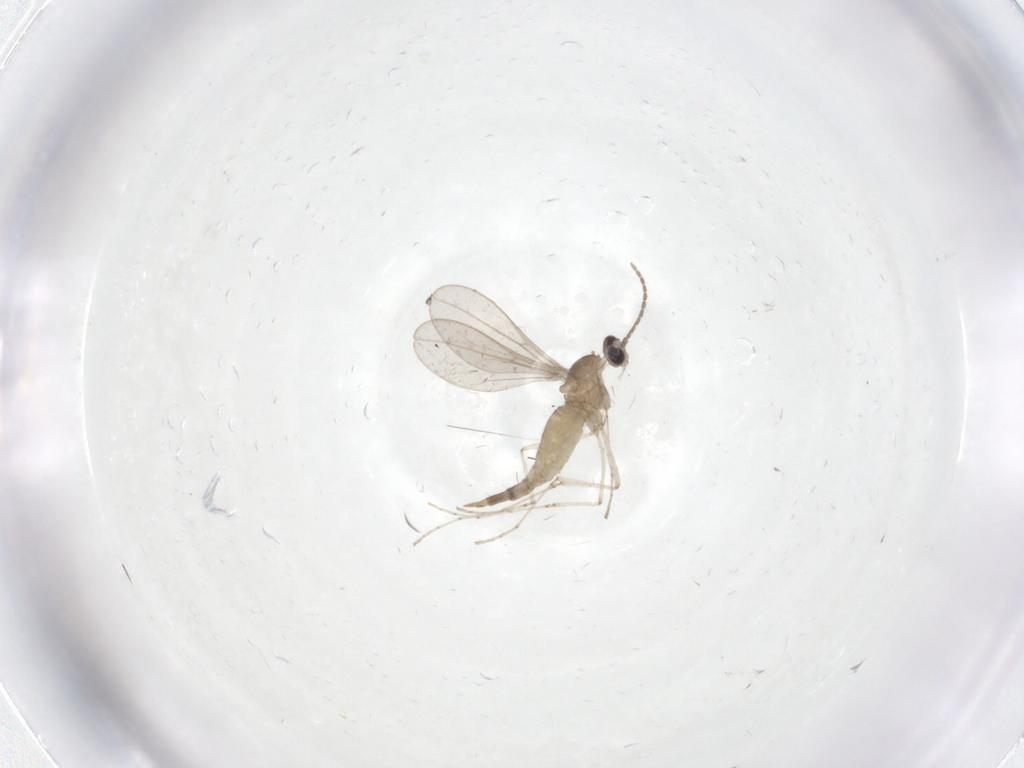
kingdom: Animalia
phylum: Arthropoda
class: Insecta
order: Diptera
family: Cecidomyiidae
